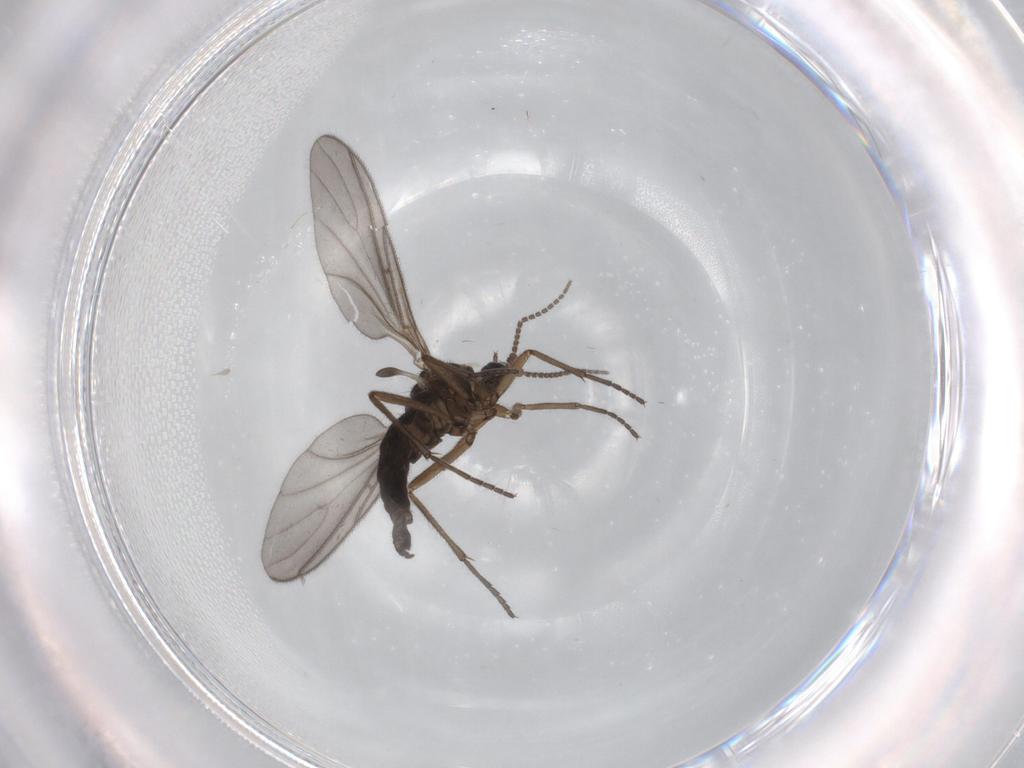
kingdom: Animalia
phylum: Arthropoda
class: Insecta
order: Diptera
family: Sciaridae
